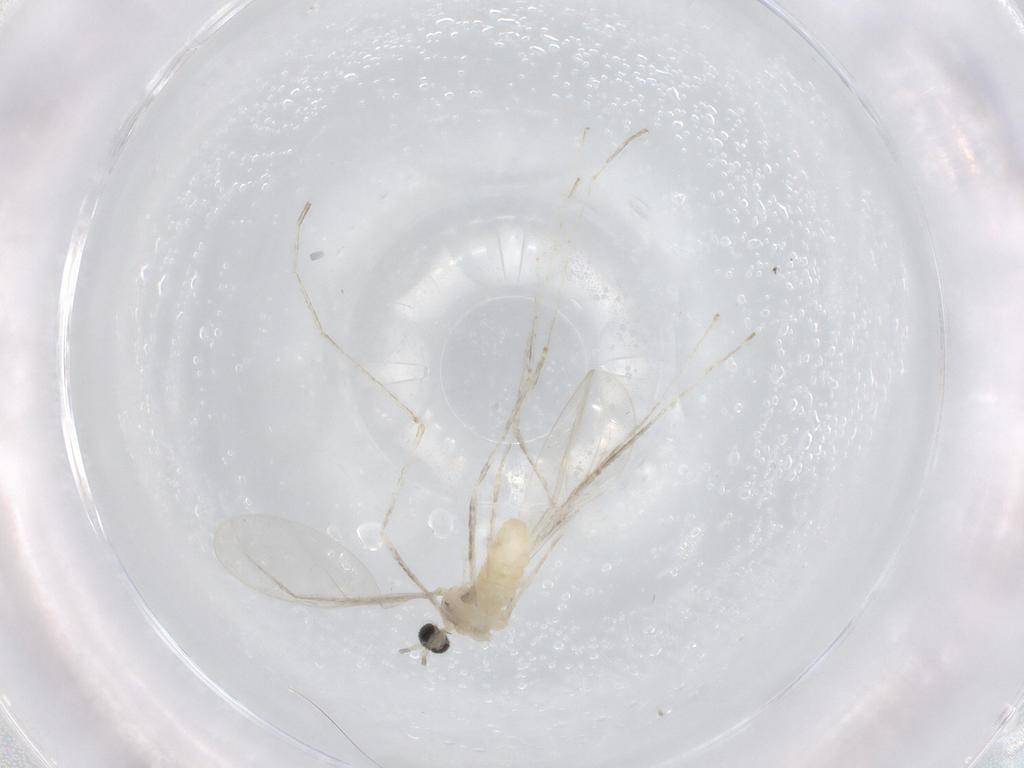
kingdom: Animalia
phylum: Arthropoda
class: Insecta
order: Diptera
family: Cecidomyiidae
